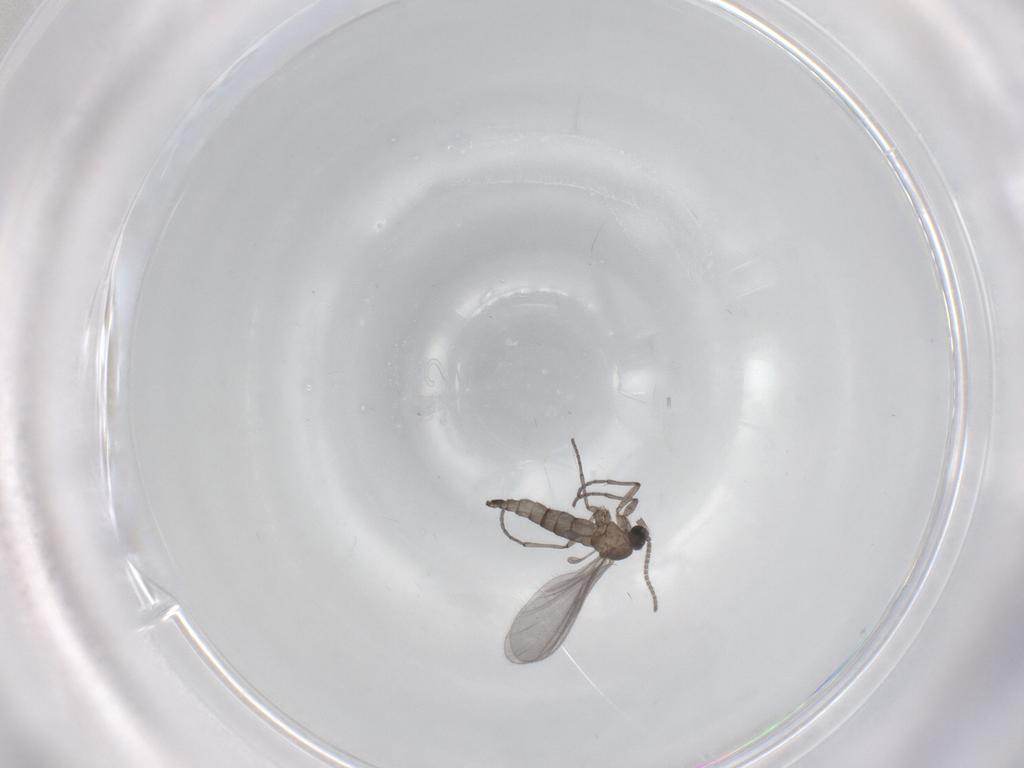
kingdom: Animalia
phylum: Arthropoda
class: Insecta
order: Diptera
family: Sciaridae
